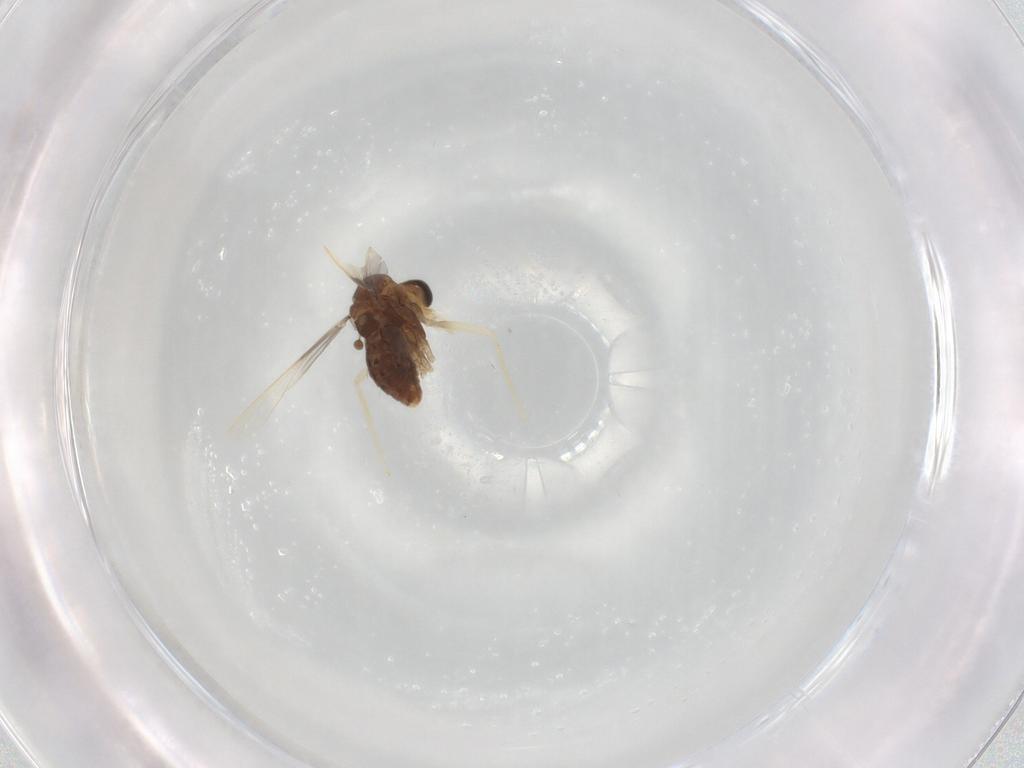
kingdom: Animalia
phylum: Arthropoda
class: Insecta
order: Diptera
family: Chironomidae
